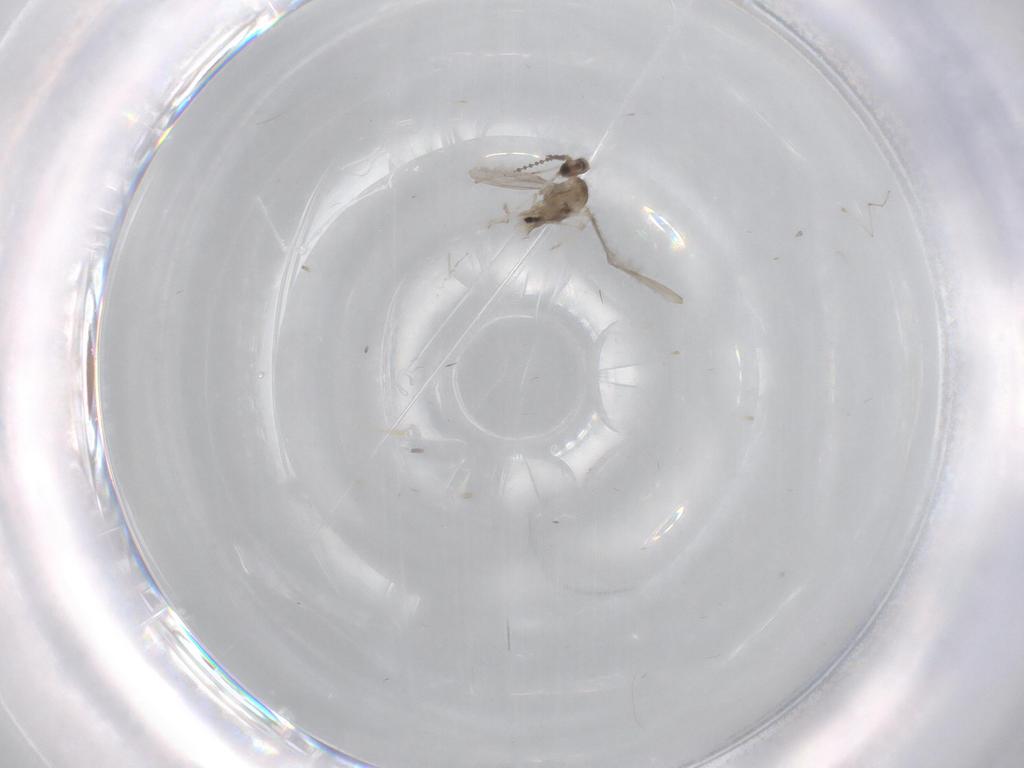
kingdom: Animalia
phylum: Arthropoda
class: Insecta
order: Diptera
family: Cecidomyiidae
